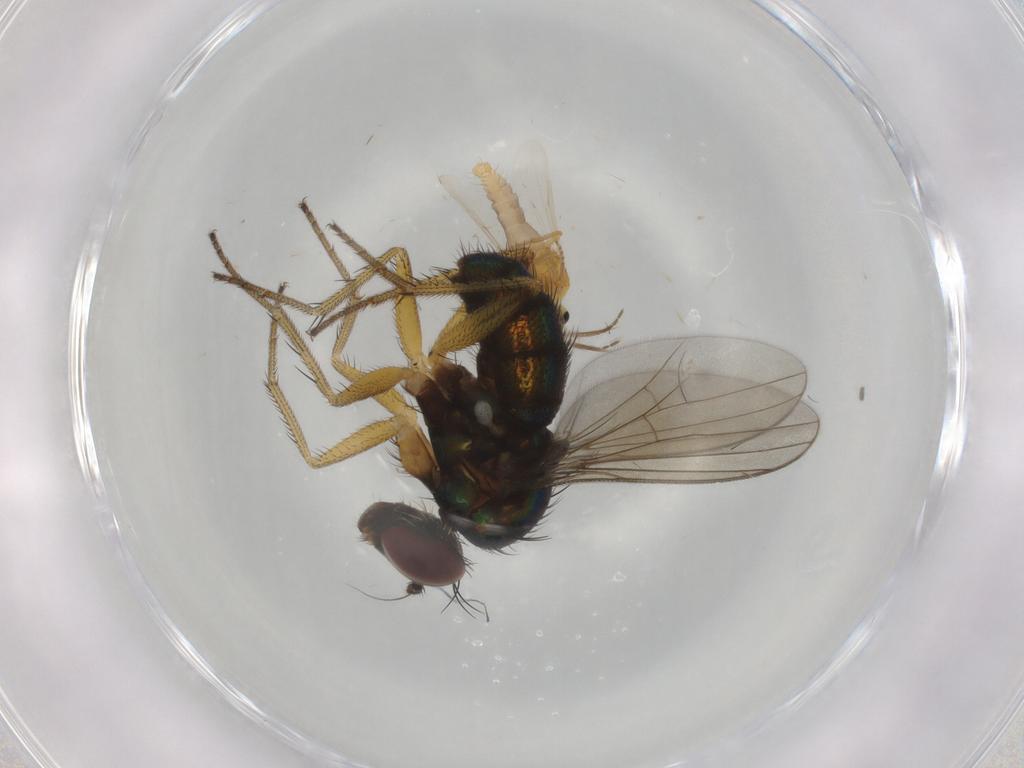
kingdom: Animalia
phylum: Arthropoda
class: Insecta
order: Diptera
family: Dolichopodidae
